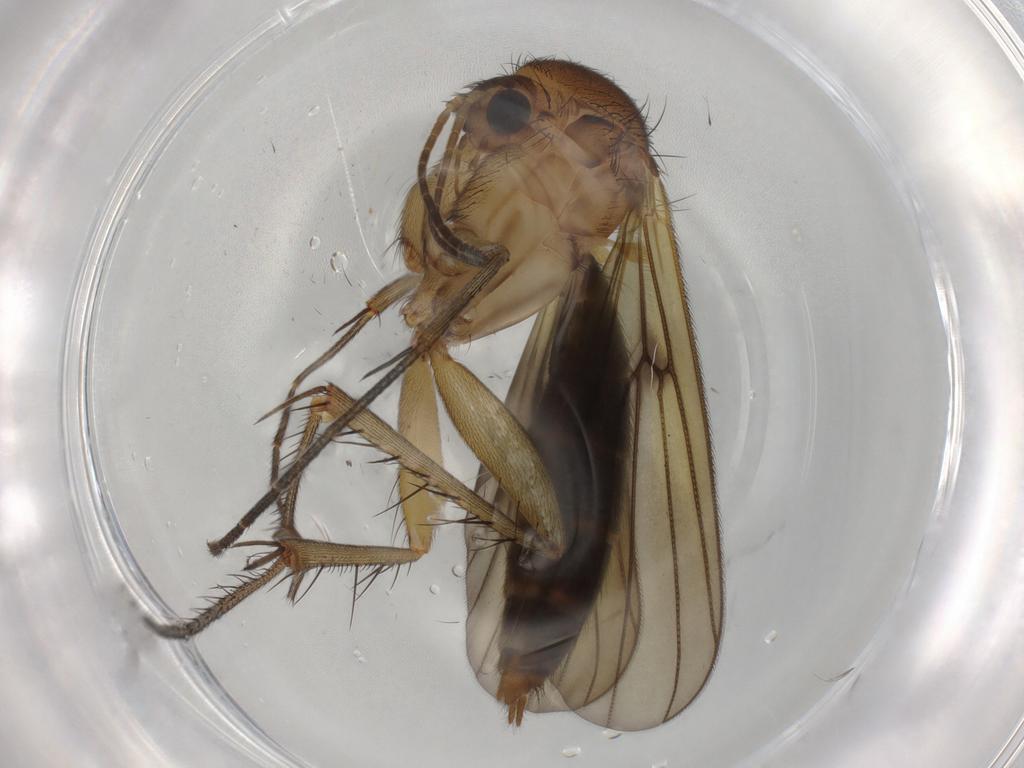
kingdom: Animalia
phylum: Arthropoda
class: Insecta
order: Diptera
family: Mycetophilidae
